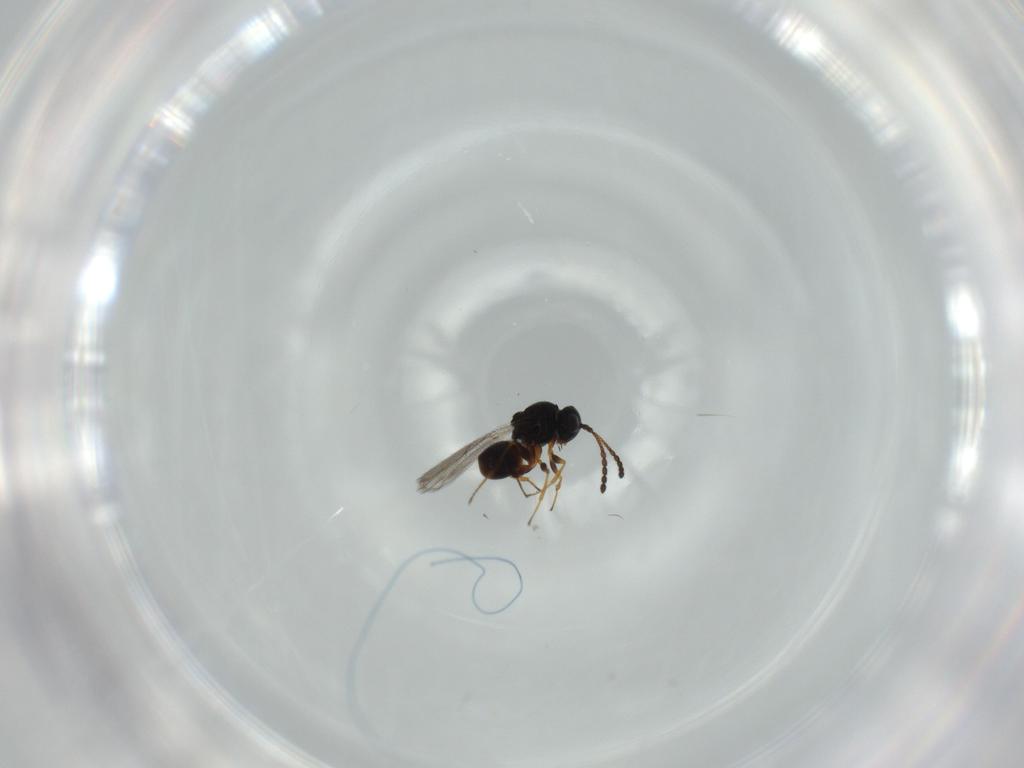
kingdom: Animalia
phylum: Arthropoda
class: Insecta
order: Hymenoptera
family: Figitidae
